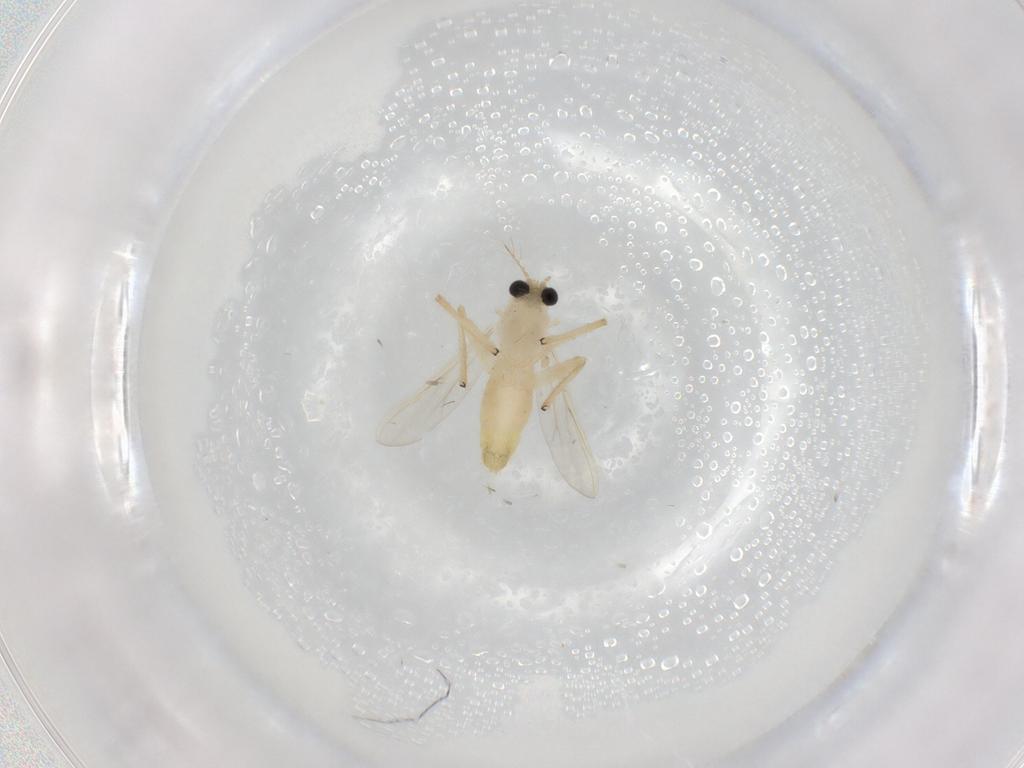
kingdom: Animalia
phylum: Arthropoda
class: Insecta
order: Diptera
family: Chironomidae
